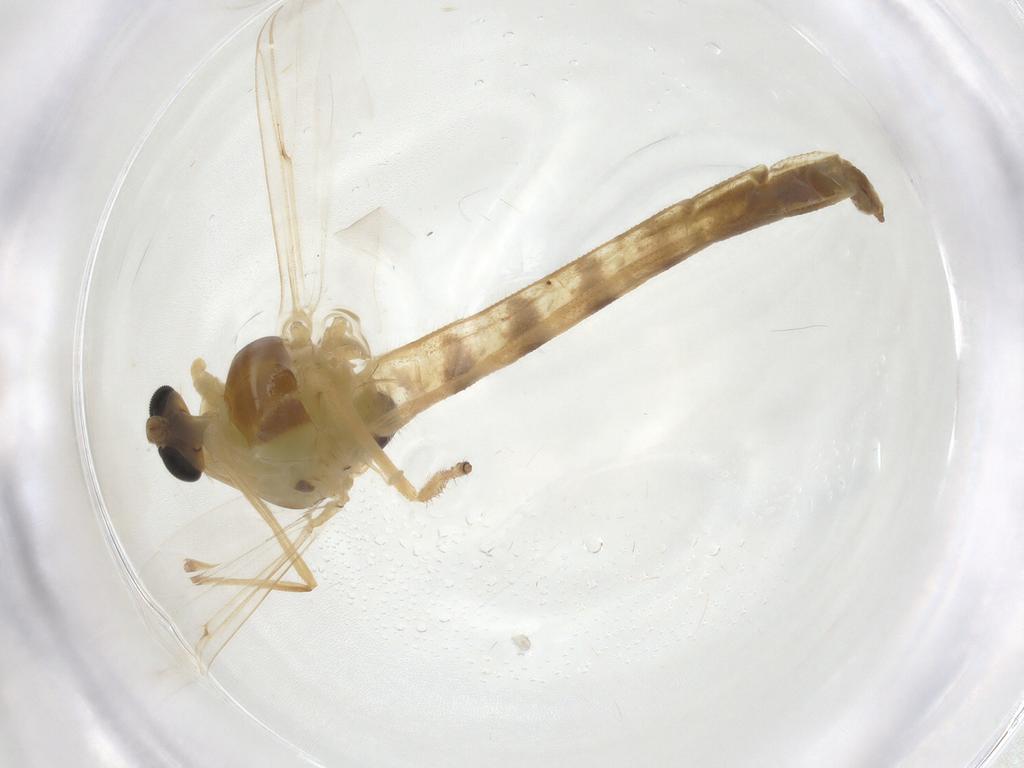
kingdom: Animalia
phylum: Arthropoda
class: Insecta
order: Diptera
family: Chironomidae
